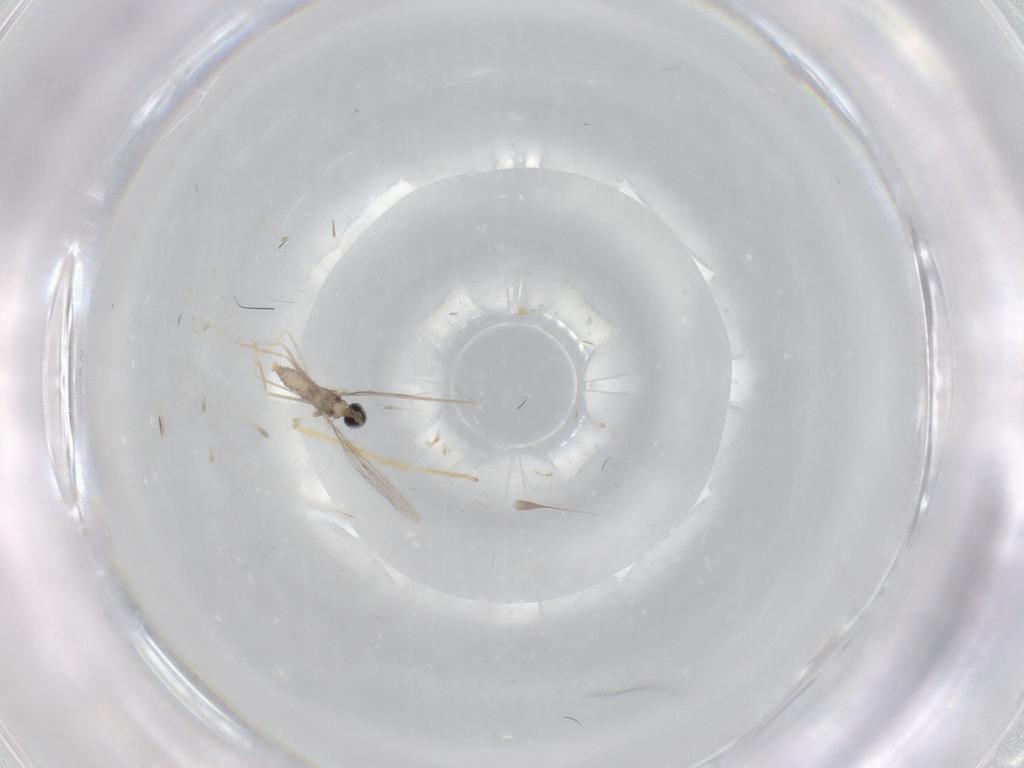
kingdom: Animalia
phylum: Arthropoda
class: Insecta
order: Diptera
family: Cecidomyiidae
